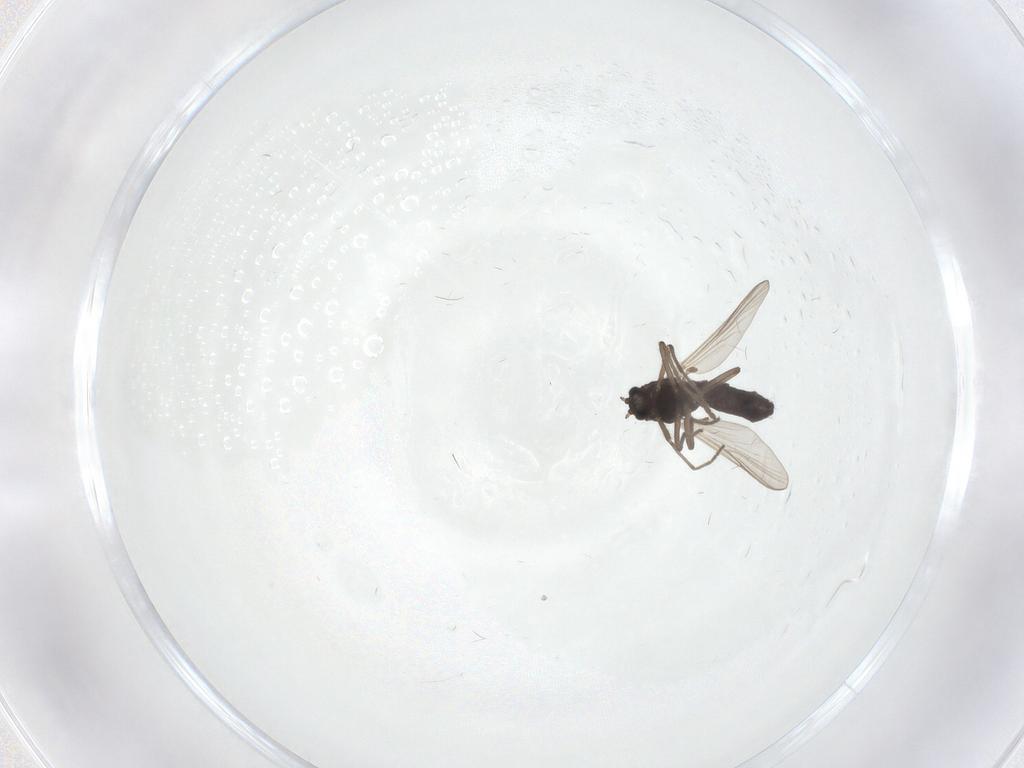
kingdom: Animalia
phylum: Arthropoda
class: Insecta
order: Diptera
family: Chironomidae
